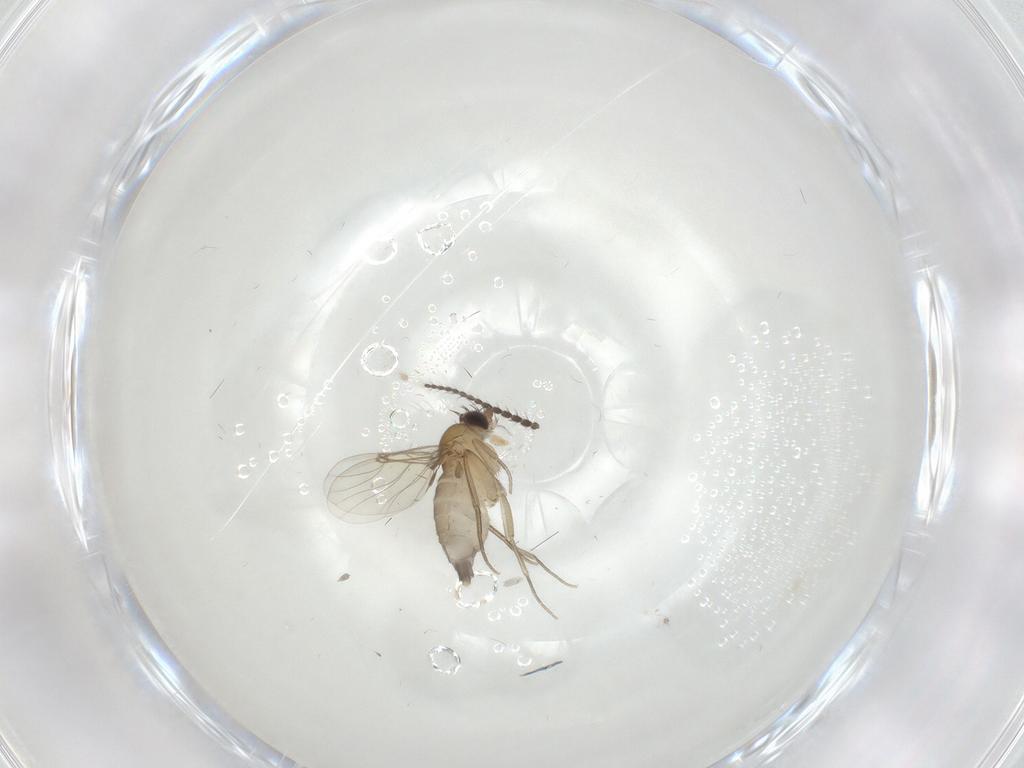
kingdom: Animalia
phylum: Arthropoda
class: Insecta
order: Diptera
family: Phoridae
